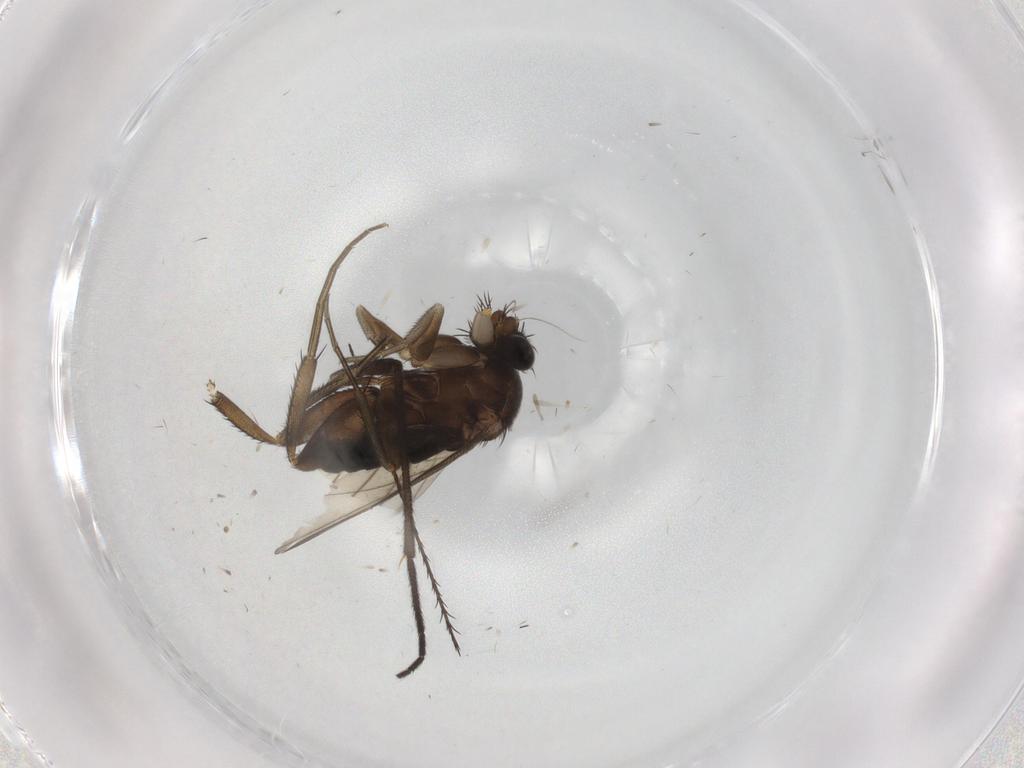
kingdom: Animalia
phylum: Arthropoda
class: Insecta
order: Diptera
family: Phoridae
